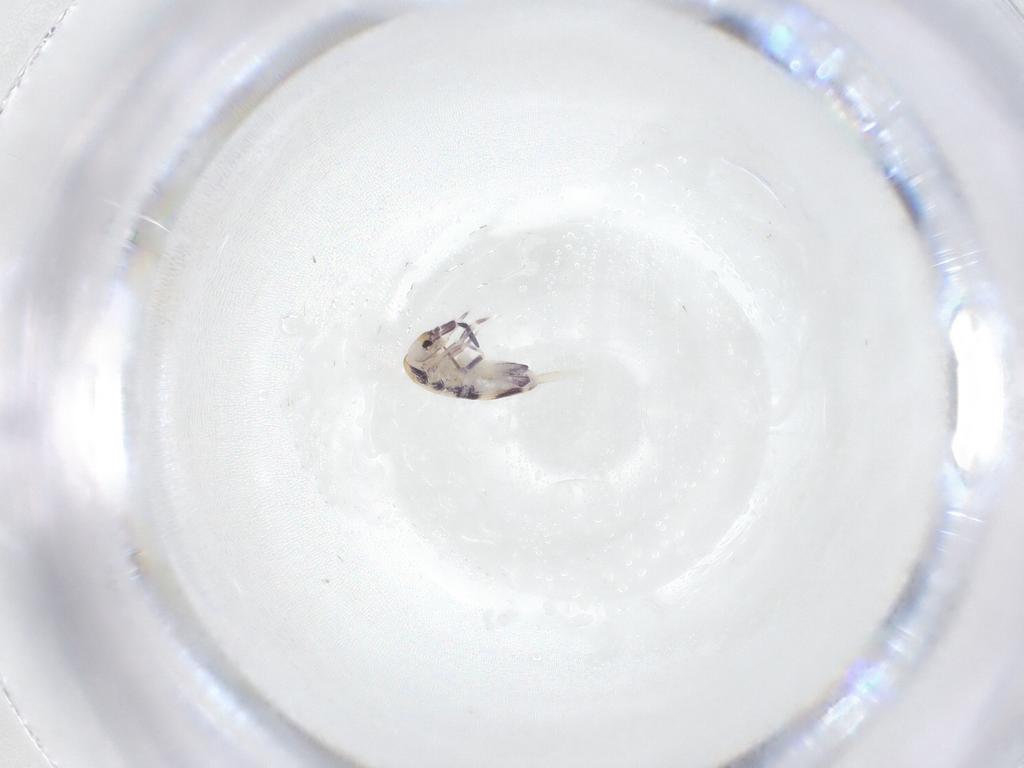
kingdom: Animalia
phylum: Arthropoda
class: Collembola
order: Entomobryomorpha
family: Entomobryidae
